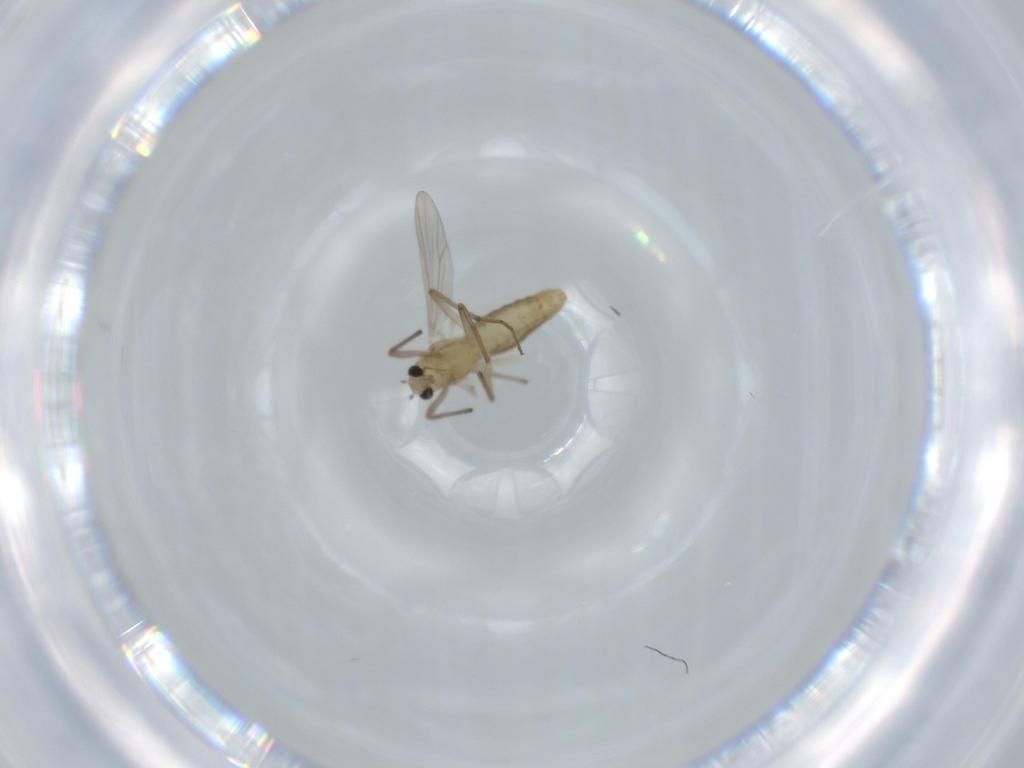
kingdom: Animalia
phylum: Arthropoda
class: Insecta
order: Diptera
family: Chironomidae
